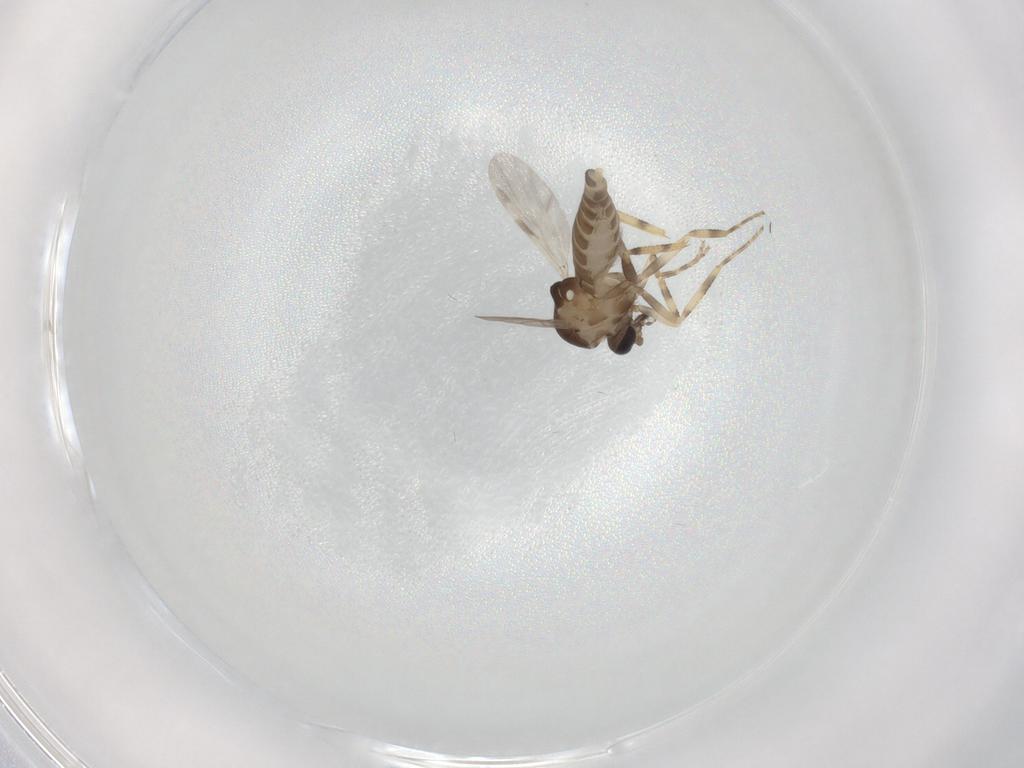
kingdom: Animalia
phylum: Arthropoda
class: Insecta
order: Diptera
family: Ceratopogonidae
